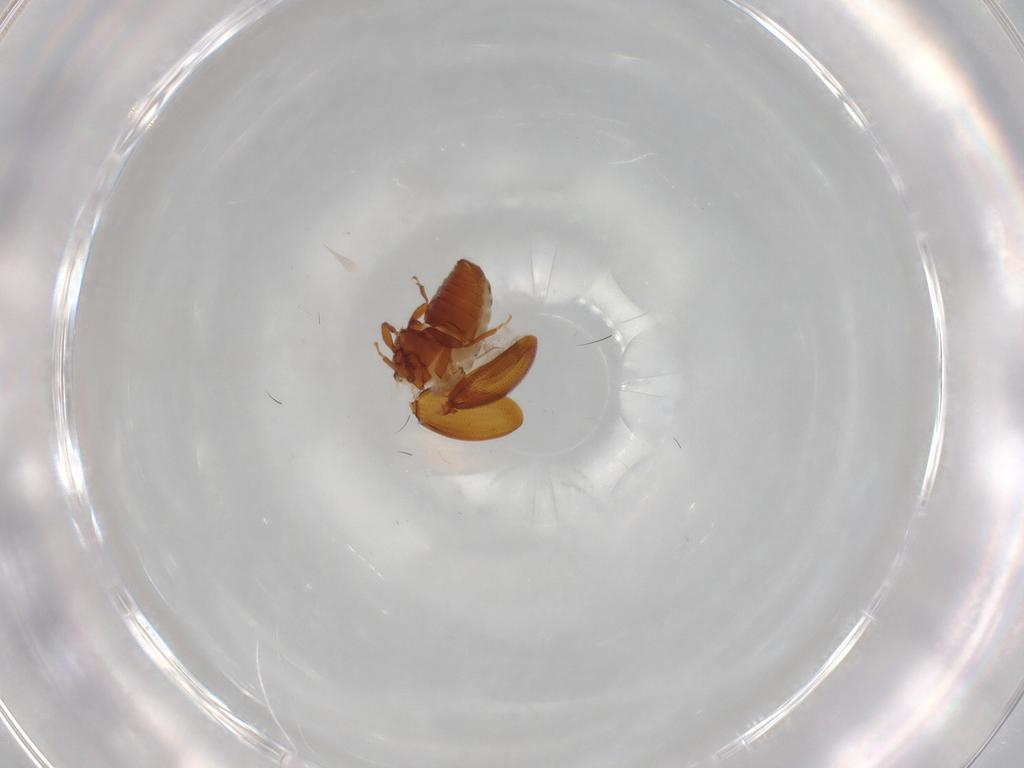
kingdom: Animalia
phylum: Arthropoda
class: Insecta
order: Coleoptera
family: Latridiidae
